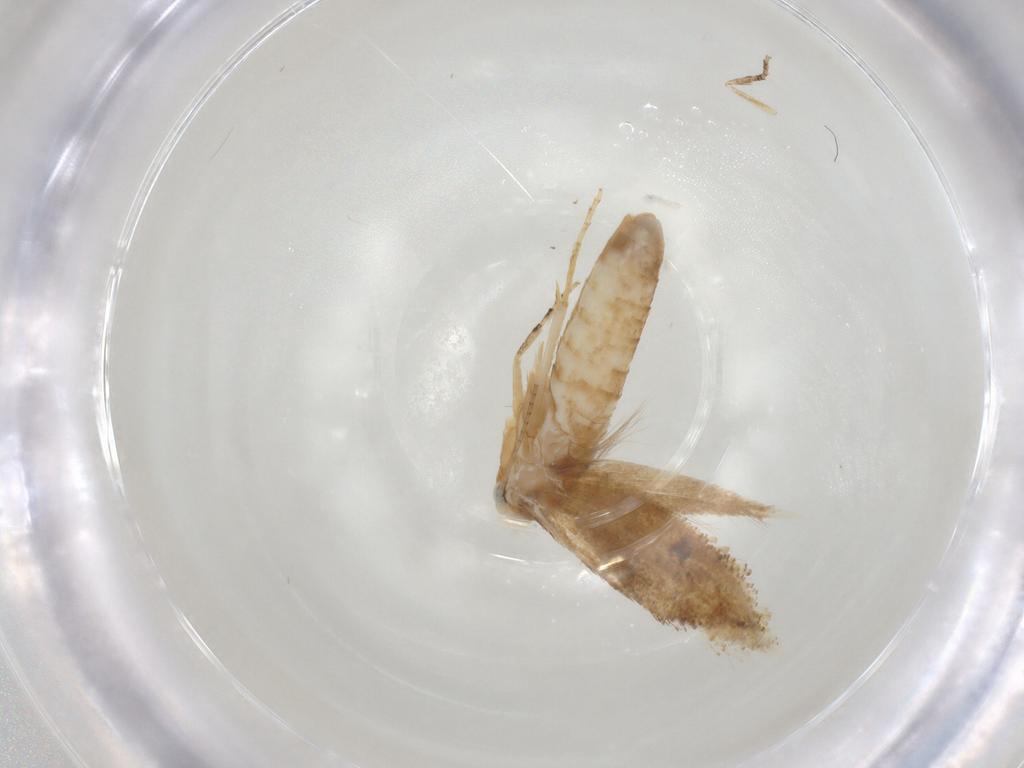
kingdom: Animalia
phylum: Arthropoda
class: Insecta
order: Lepidoptera
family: Bucculatricidae
